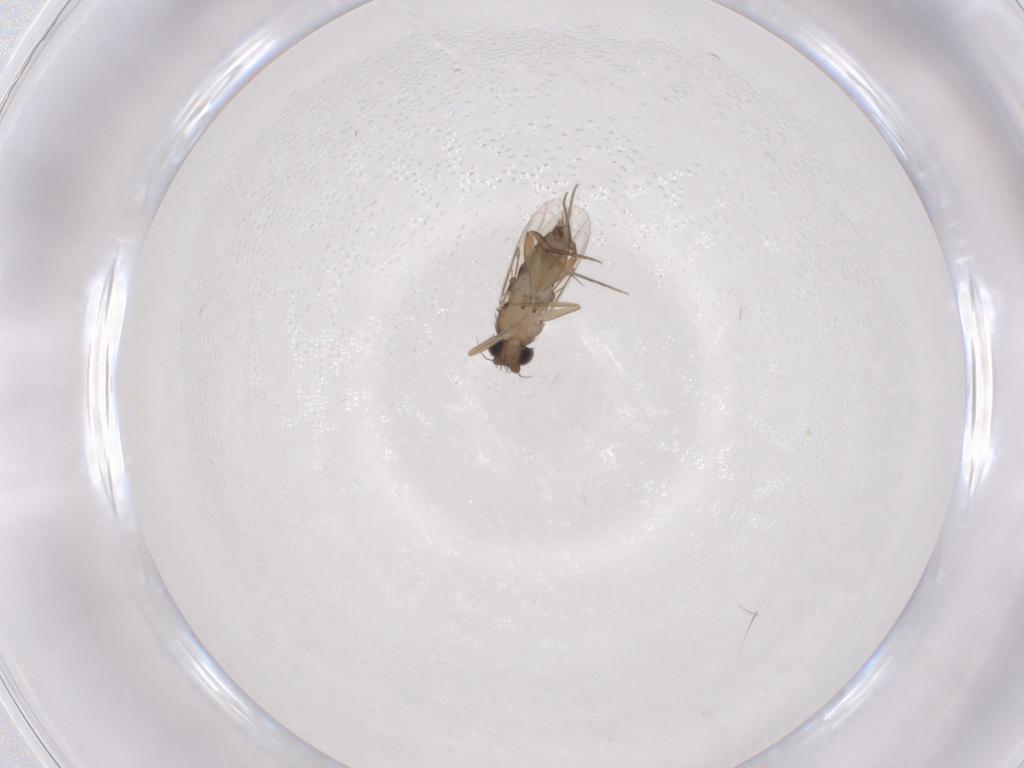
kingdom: Animalia
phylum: Arthropoda
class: Insecta
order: Diptera
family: Phoridae
